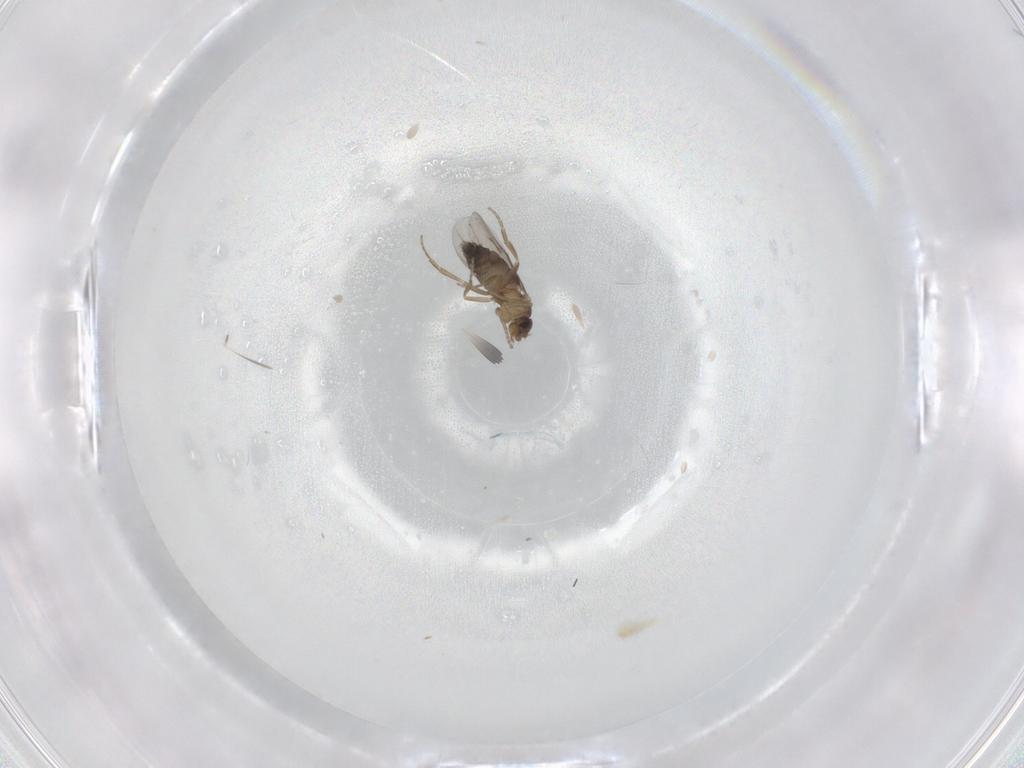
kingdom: Animalia
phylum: Arthropoda
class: Insecta
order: Diptera
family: Phoridae
